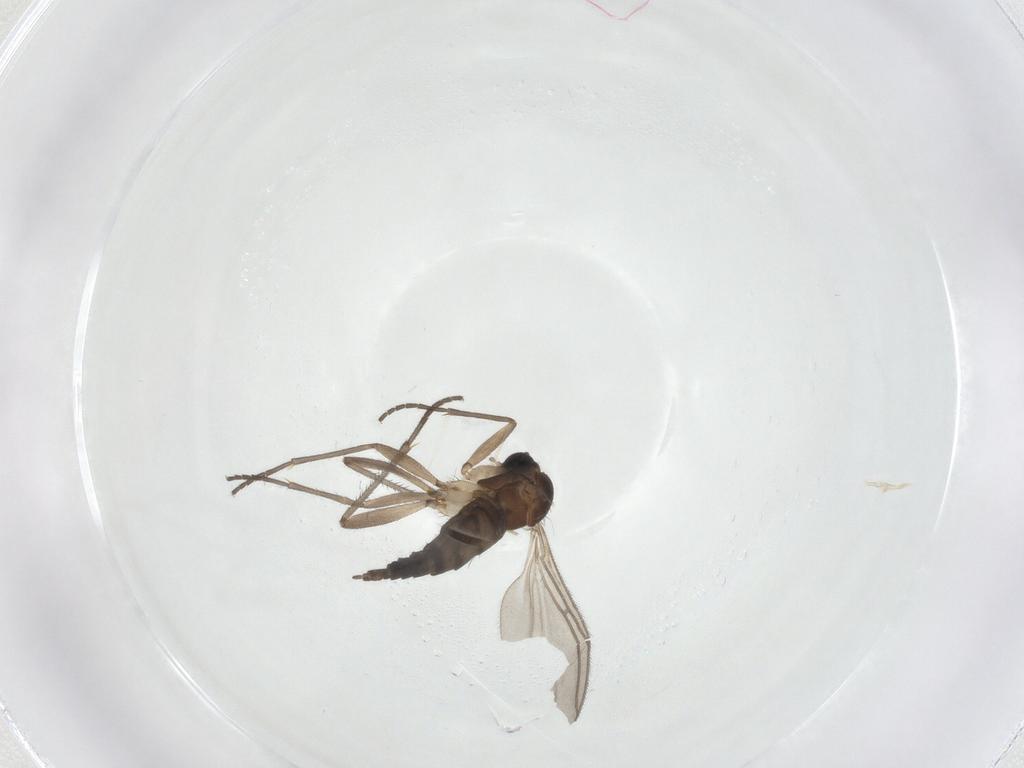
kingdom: Animalia
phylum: Arthropoda
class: Insecta
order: Diptera
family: Sciaridae
